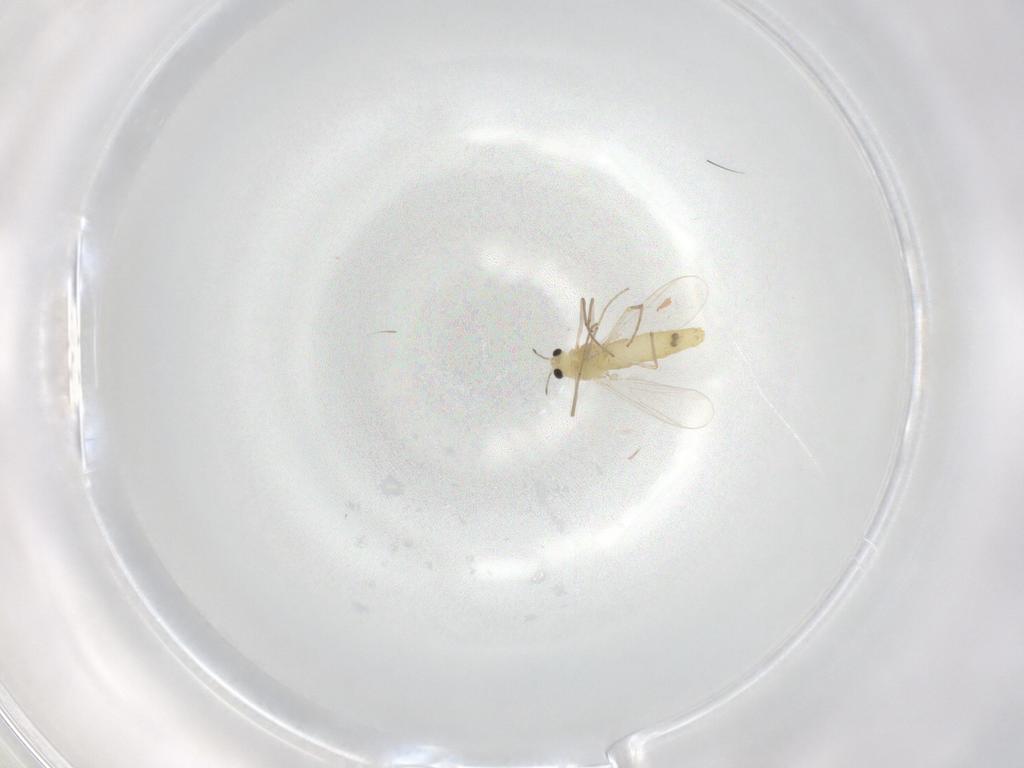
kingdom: Animalia
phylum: Arthropoda
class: Insecta
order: Diptera
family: Chironomidae
